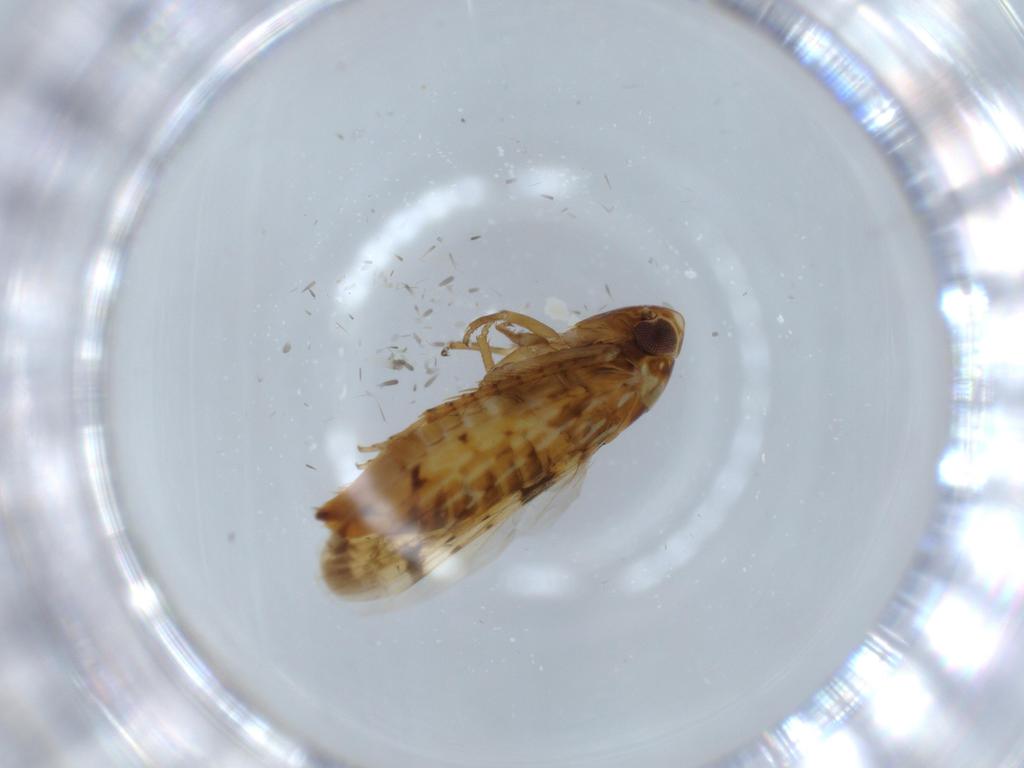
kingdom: Animalia
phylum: Arthropoda
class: Insecta
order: Hemiptera
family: Cicadellidae
